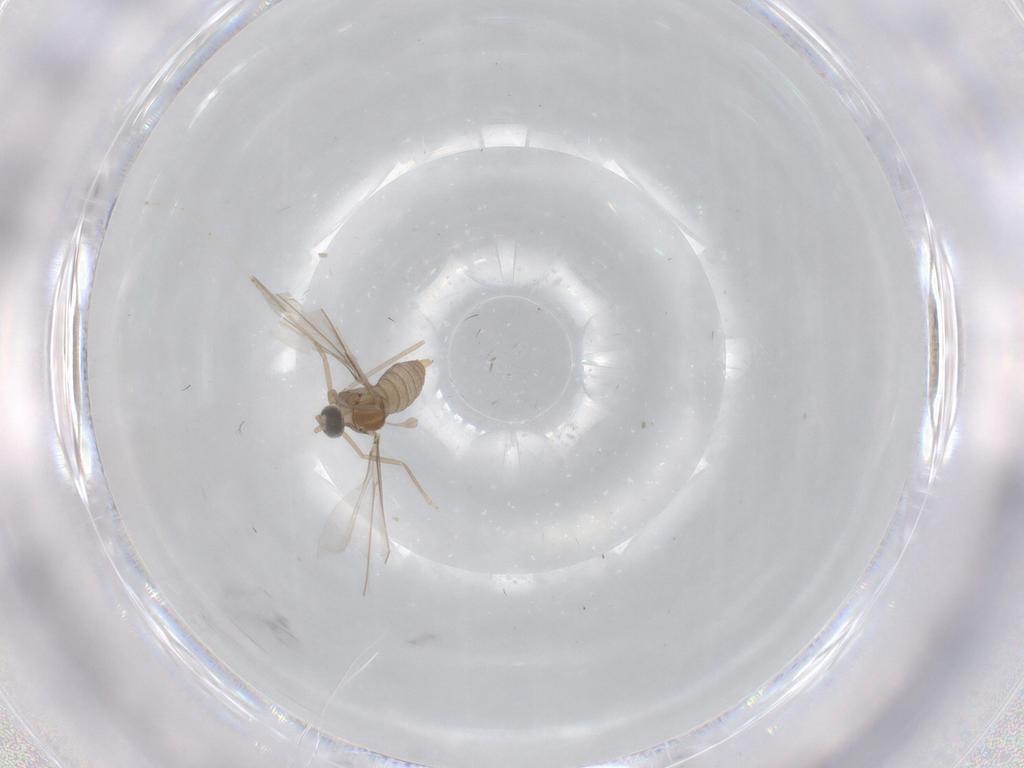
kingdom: Animalia
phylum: Arthropoda
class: Insecta
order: Diptera
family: Cecidomyiidae
